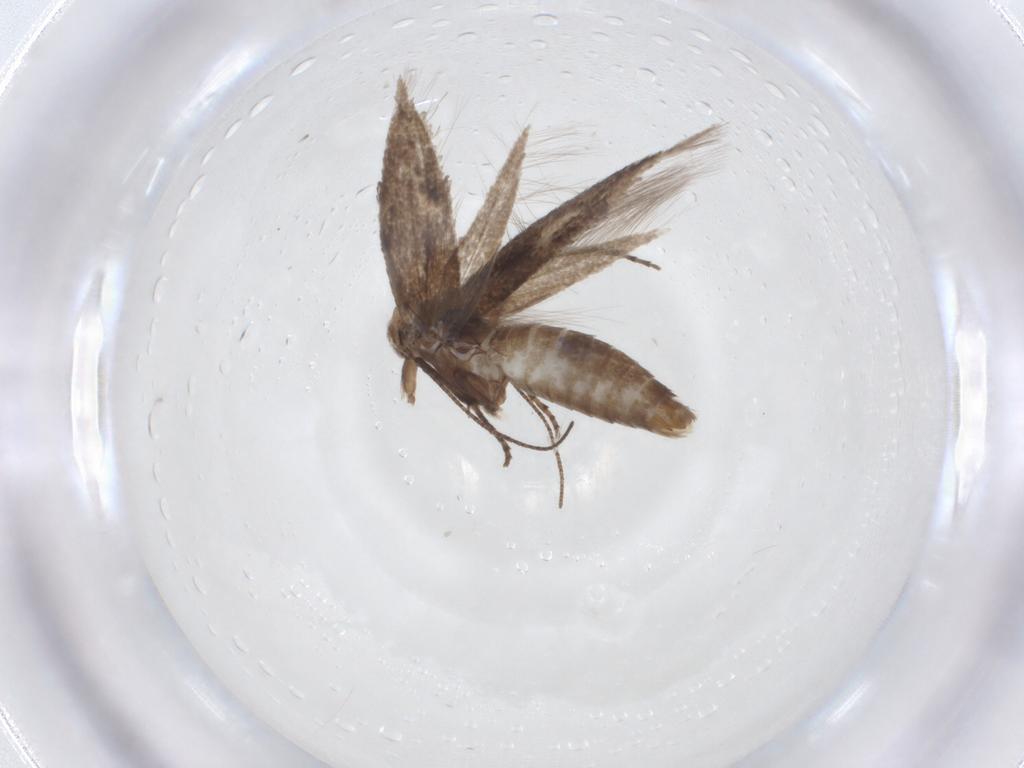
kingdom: Animalia
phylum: Arthropoda
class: Insecta
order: Lepidoptera
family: Bucculatricidae
